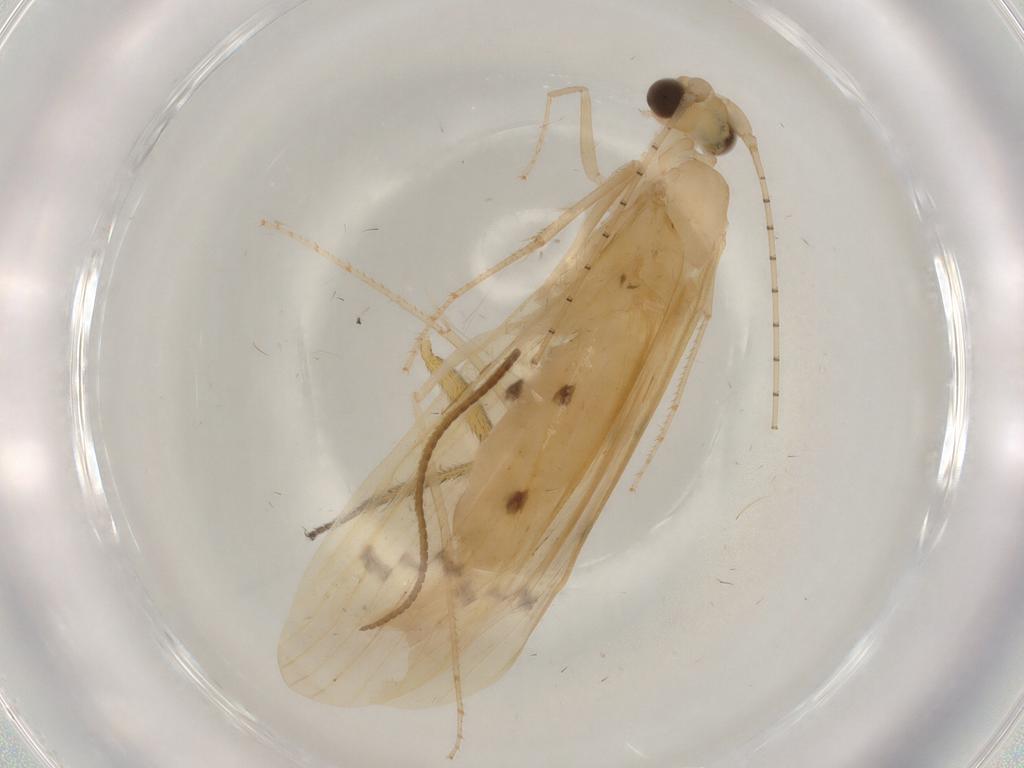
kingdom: Animalia
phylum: Arthropoda
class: Insecta
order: Trichoptera
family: Leptoceridae
